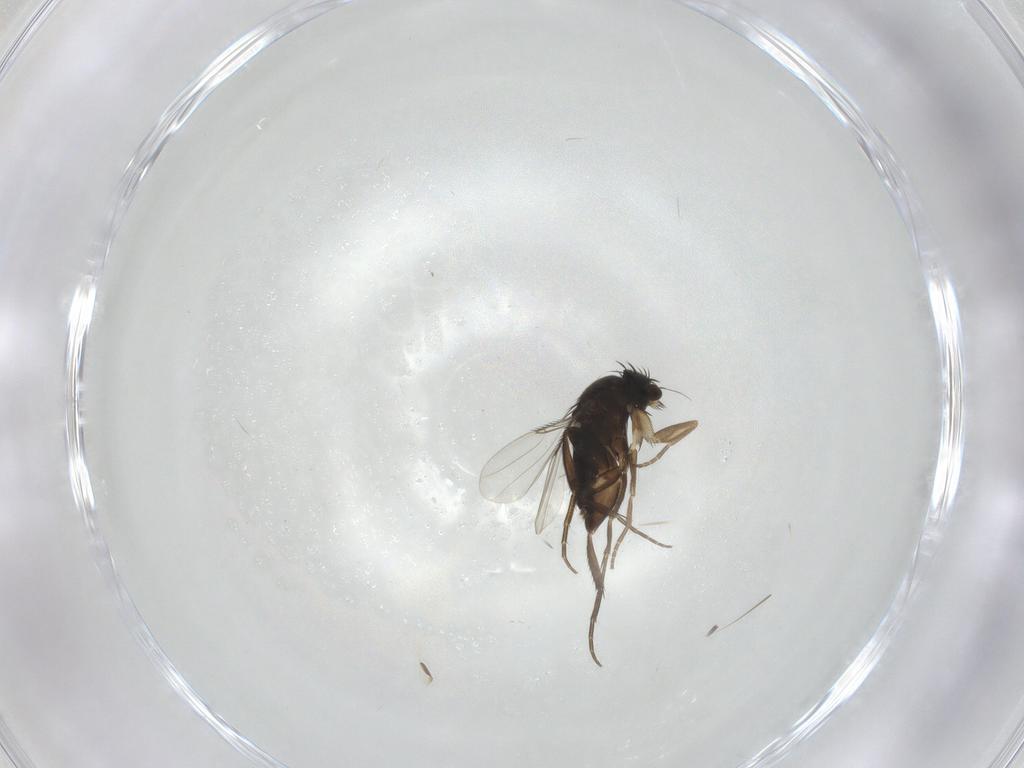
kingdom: Animalia
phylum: Arthropoda
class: Insecta
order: Diptera
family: Phoridae
